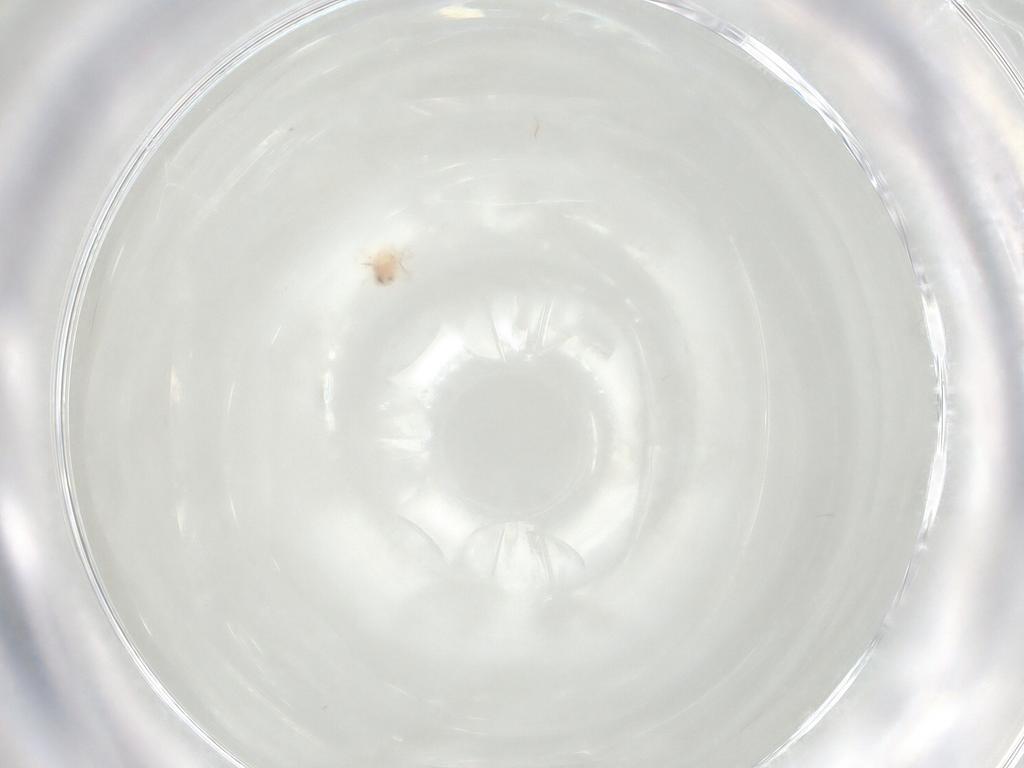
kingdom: Animalia
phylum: Arthropoda
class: Arachnida
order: Trombidiformes
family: Anystidae
